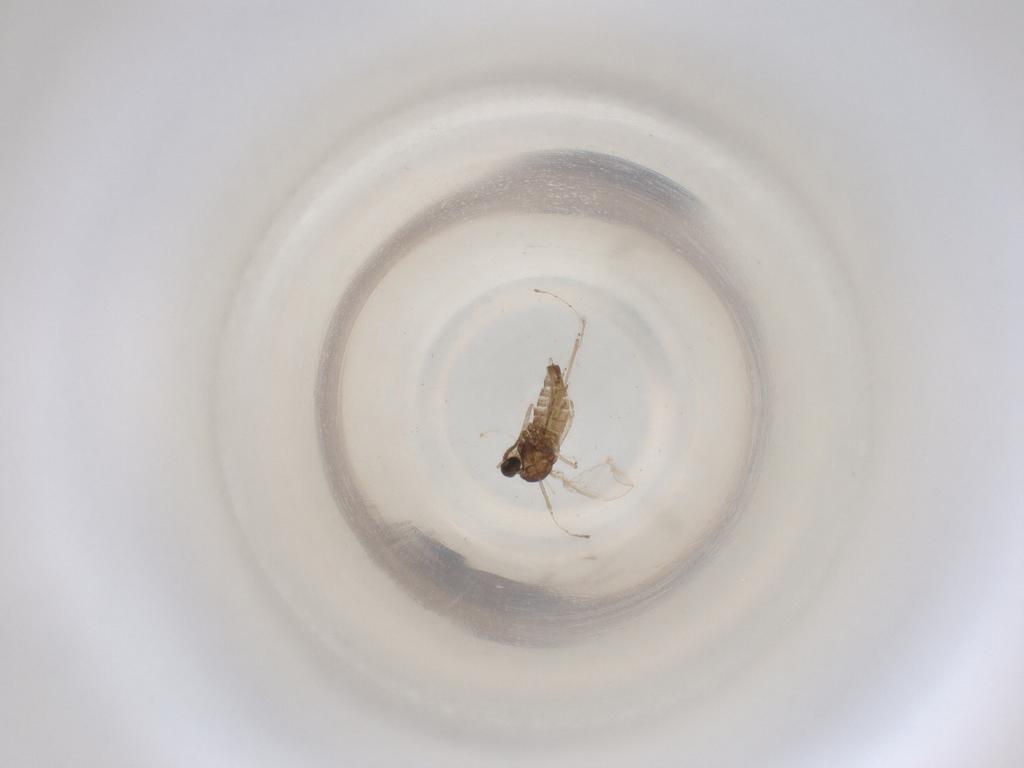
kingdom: Animalia
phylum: Arthropoda
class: Insecta
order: Diptera
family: Cecidomyiidae
